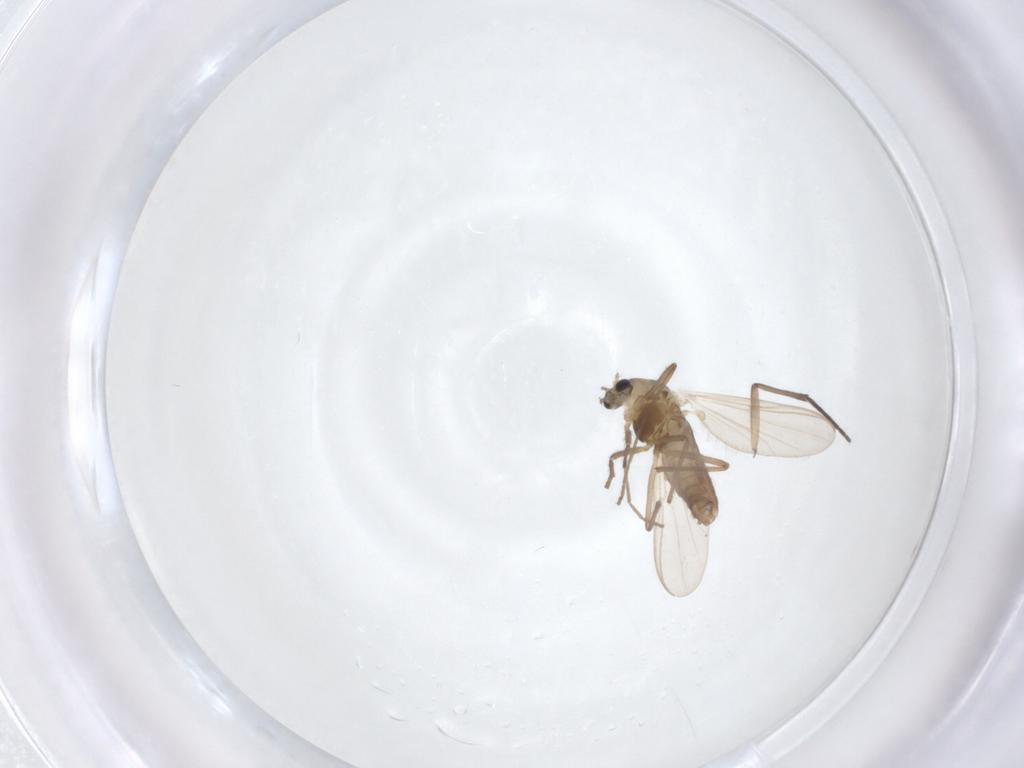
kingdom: Animalia
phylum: Arthropoda
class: Insecta
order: Diptera
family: Chironomidae
